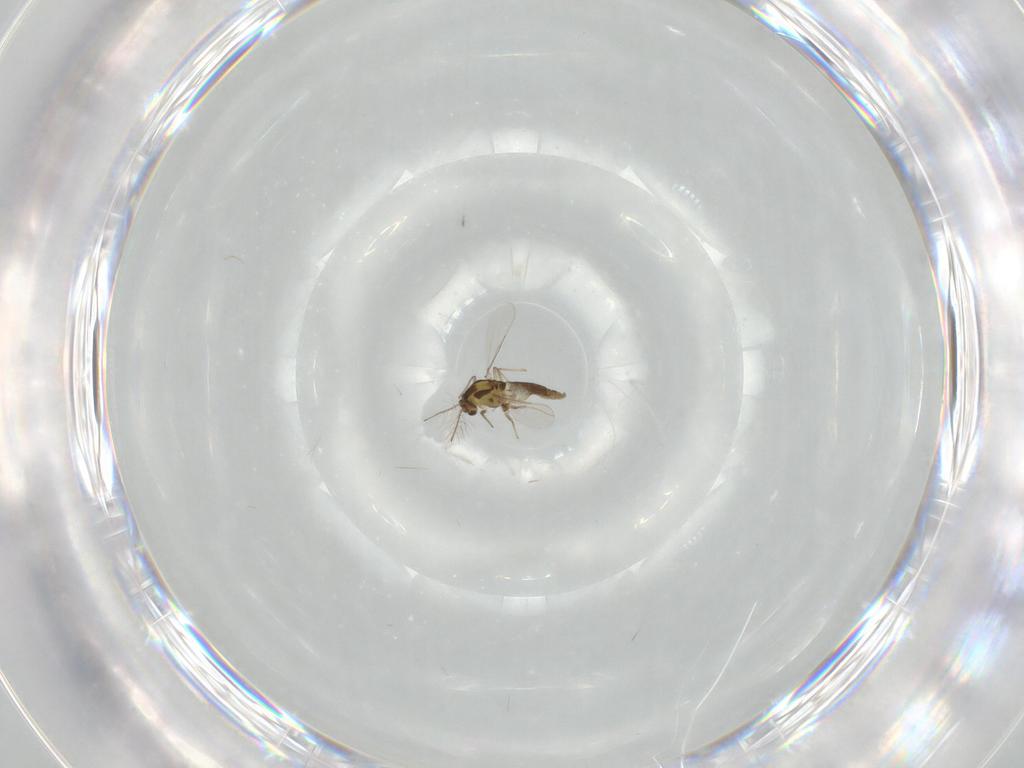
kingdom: Animalia
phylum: Arthropoda
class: Insecta
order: Diptera
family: Chironomidae
